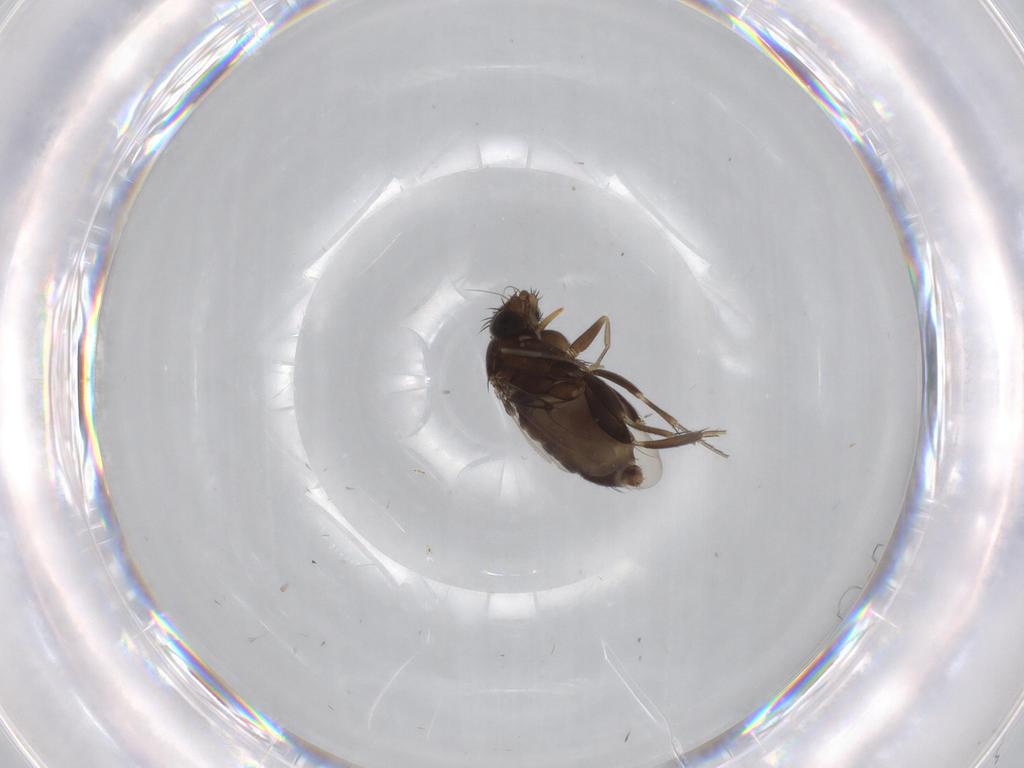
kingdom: Animalia
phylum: Arthropoda
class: Insecta
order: Diptera
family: Phoridae
